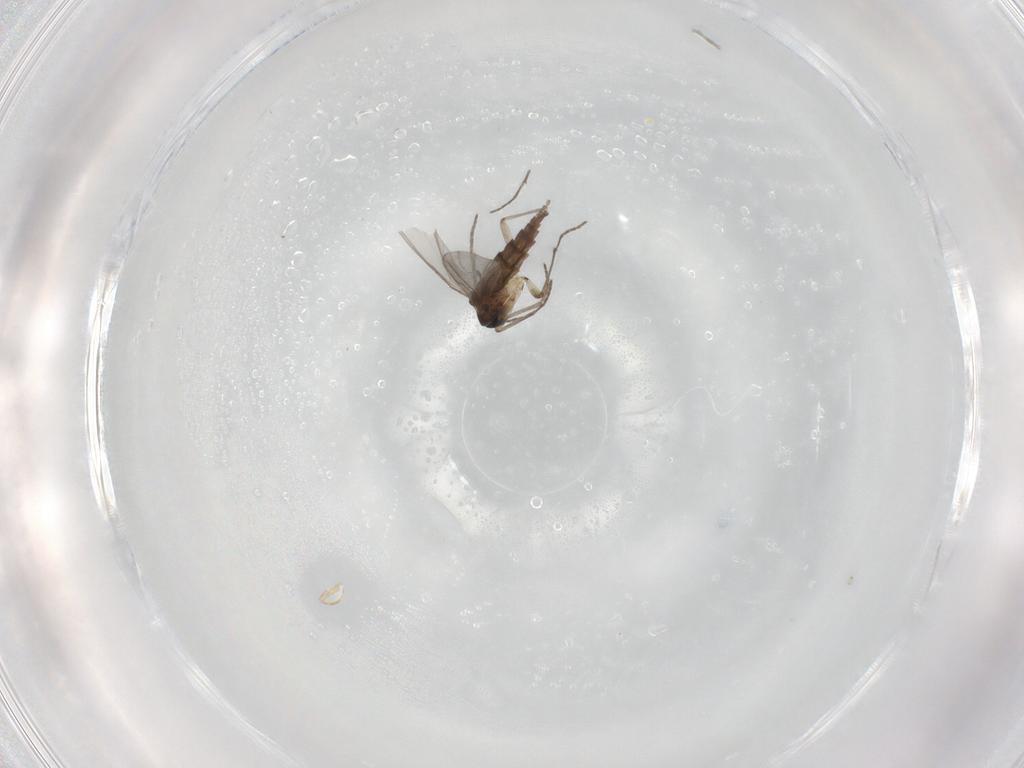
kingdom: Animalia
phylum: Arthropoda
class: Insecta
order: Diptera
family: Sciaridae
